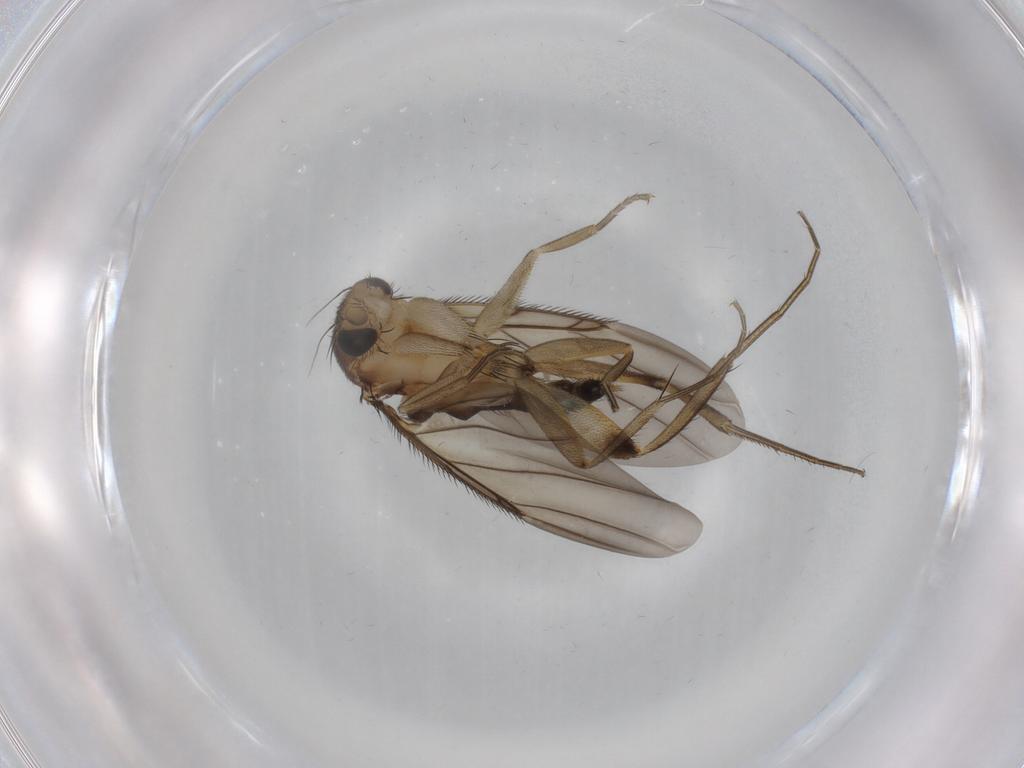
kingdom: Animalia
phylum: Arthropoda
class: Insecta
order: Diptera
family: Phoridae
